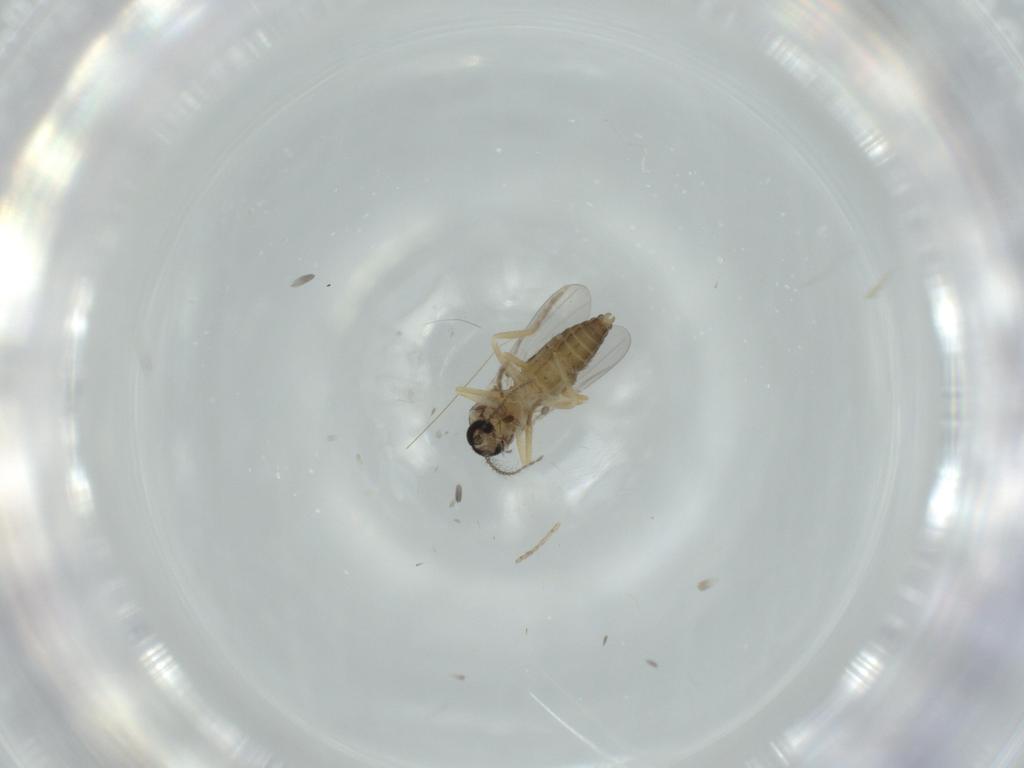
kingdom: Animalia
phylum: Arthropoda
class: Insecta
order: Diptera
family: Ceratopogonidae
